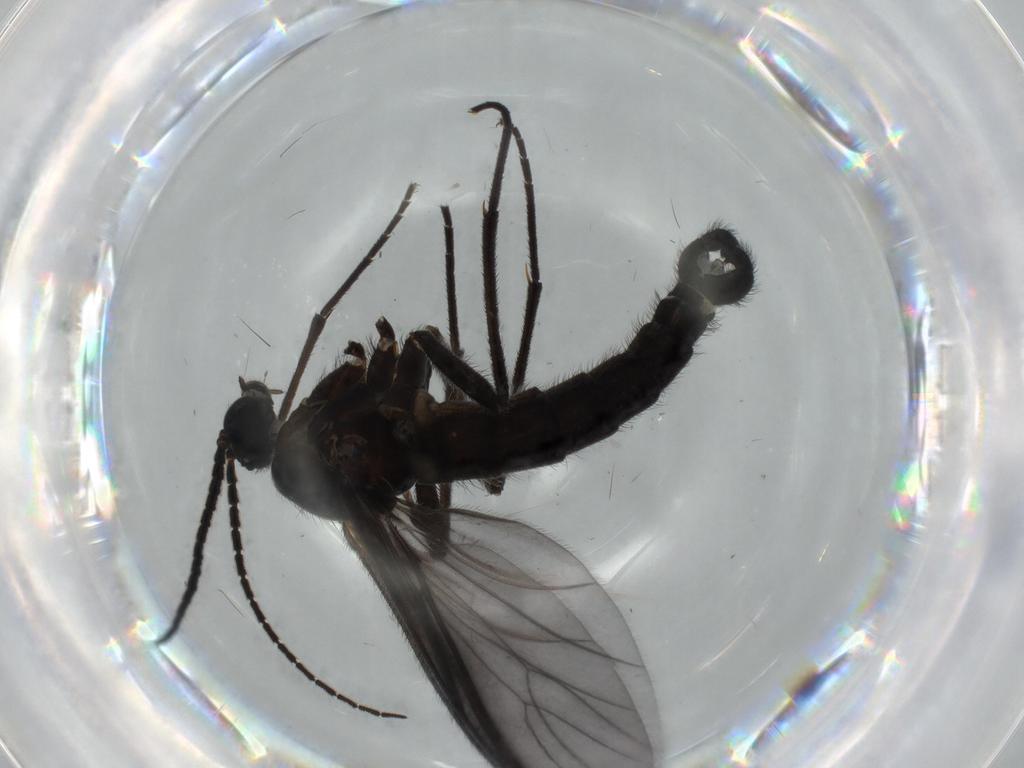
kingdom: Animalia
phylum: Arthropoda
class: Insecta
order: Diptera
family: Cecidomyiidae
